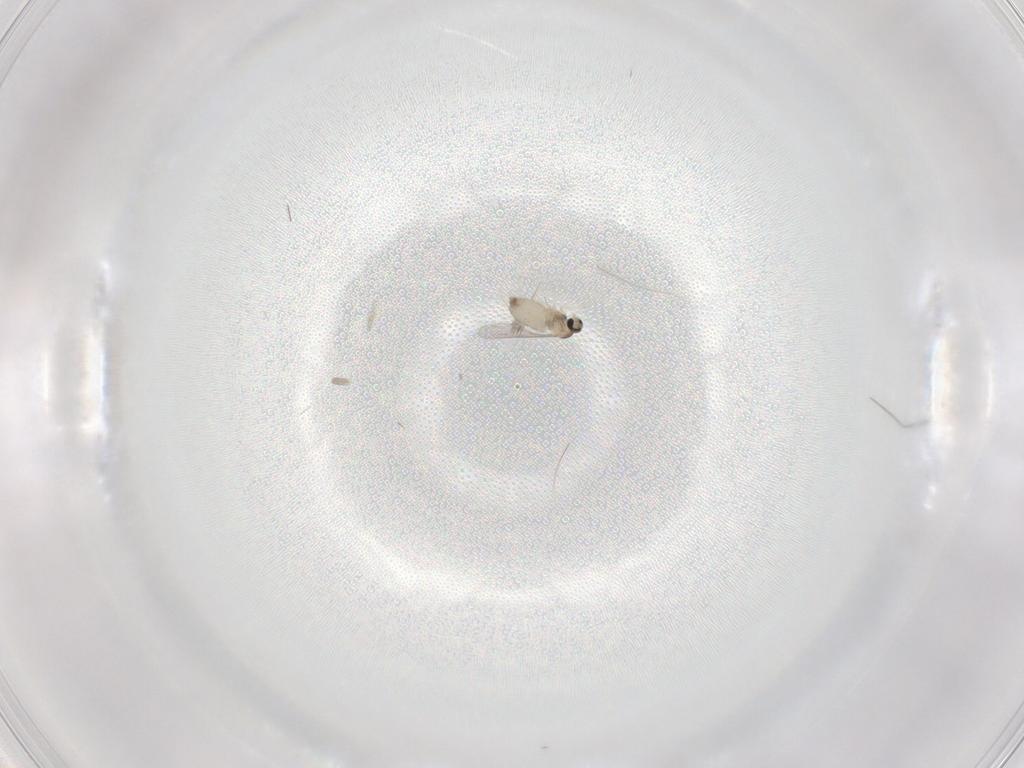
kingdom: Animalia
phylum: Arthropoda
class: Insecta
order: Diptera
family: Cecidomyiidae
